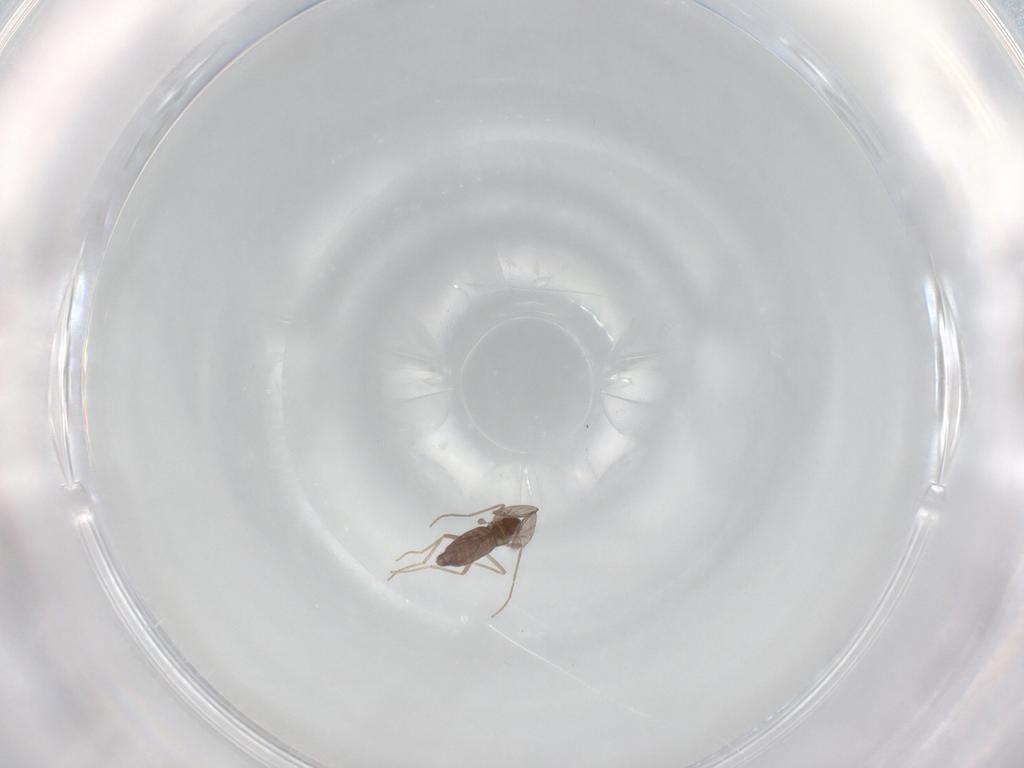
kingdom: Animalia
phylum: Arthropoda
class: Insecta
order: Diptera
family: Chironomidae
